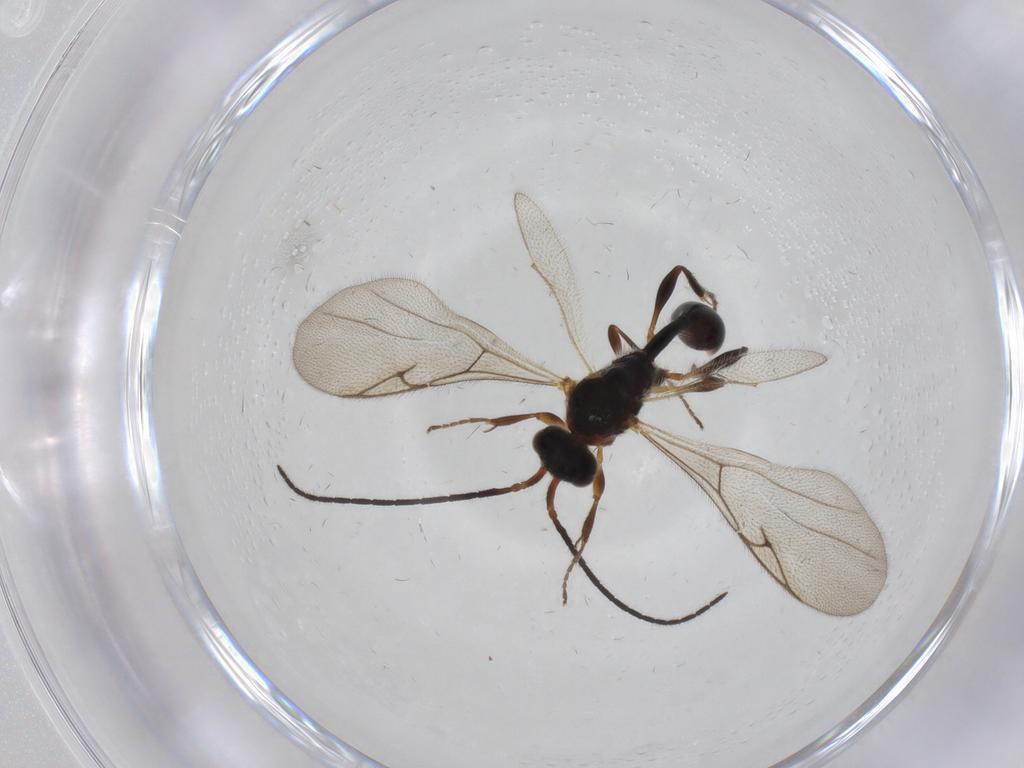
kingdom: Animalia
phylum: Arthropoda
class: Insecta
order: Hymenoptera
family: Diapriidae
